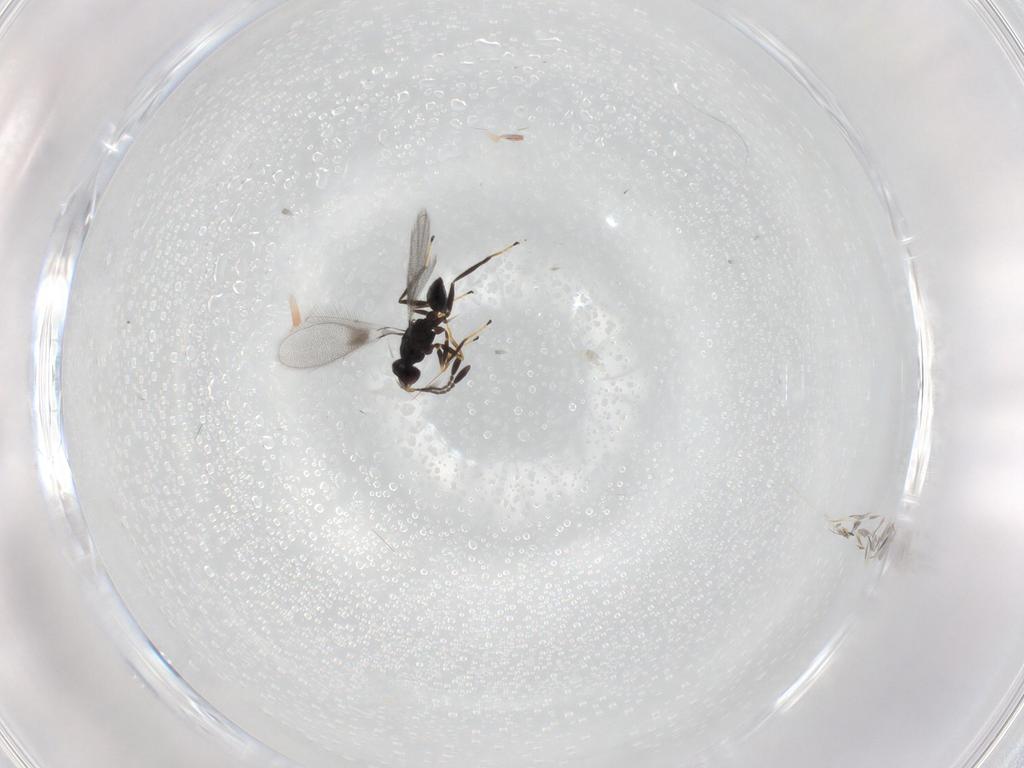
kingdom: Animalia
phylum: Arthropoda
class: Insecta
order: Hymenoptera
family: Mymaridae
